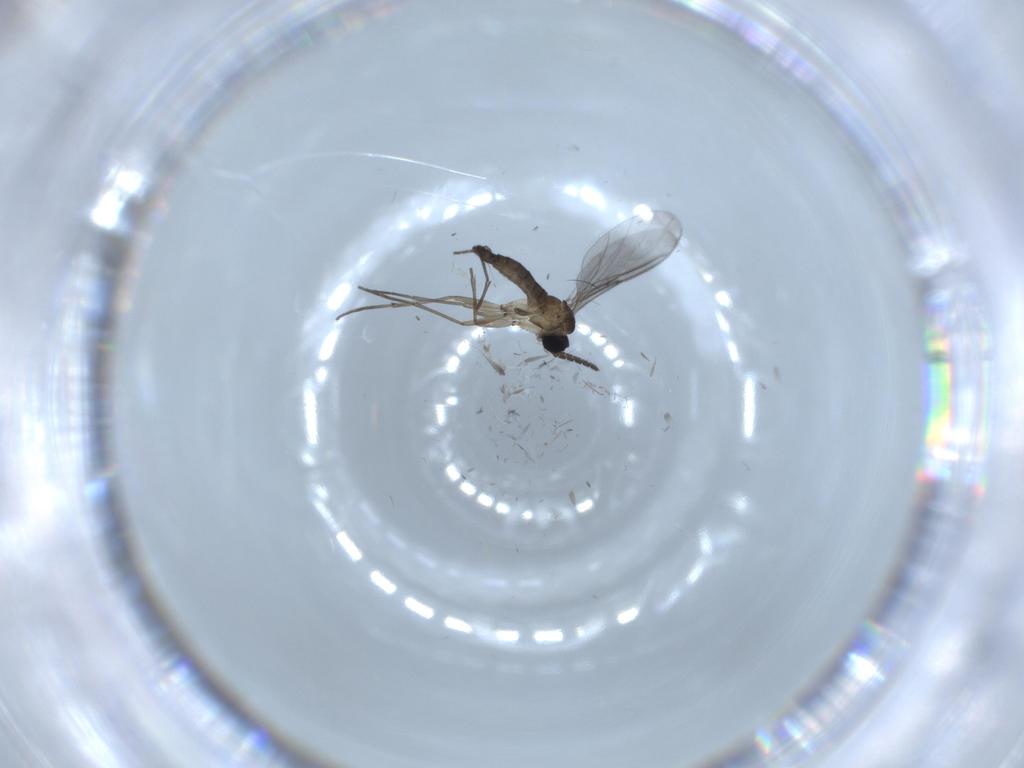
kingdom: Animalia
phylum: Arthropoda
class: Insecta
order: Diptera
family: Sciaridae
